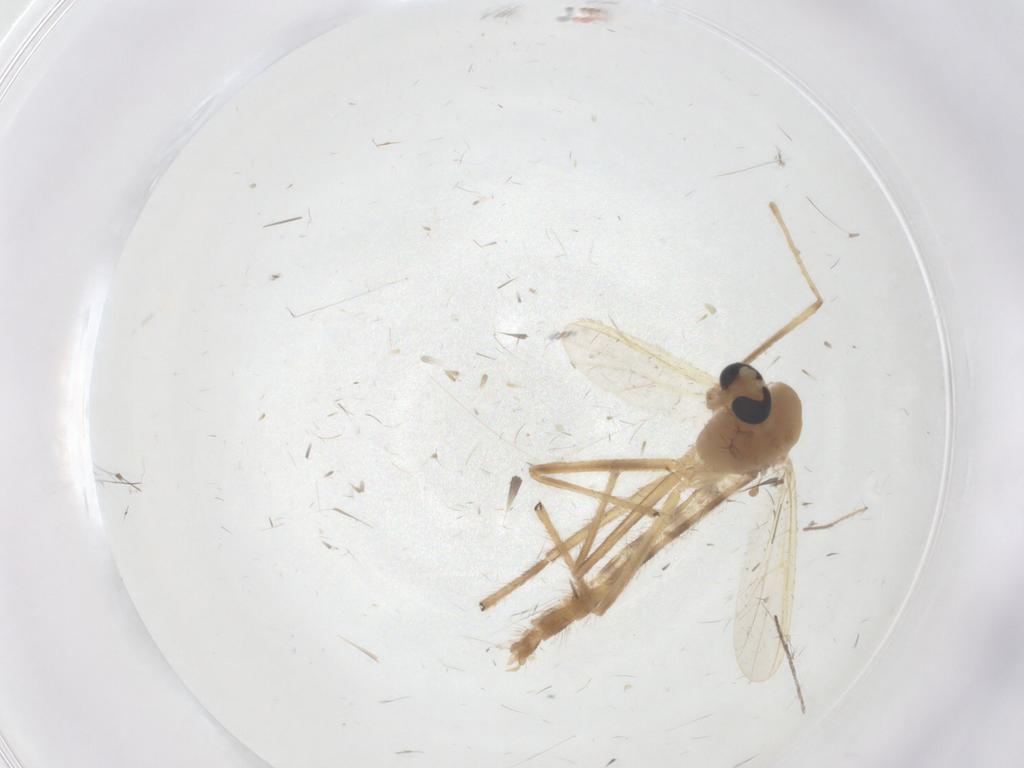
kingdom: Animalia
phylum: Arthropoda
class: Insecta
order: Diptera
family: Chironomidae
